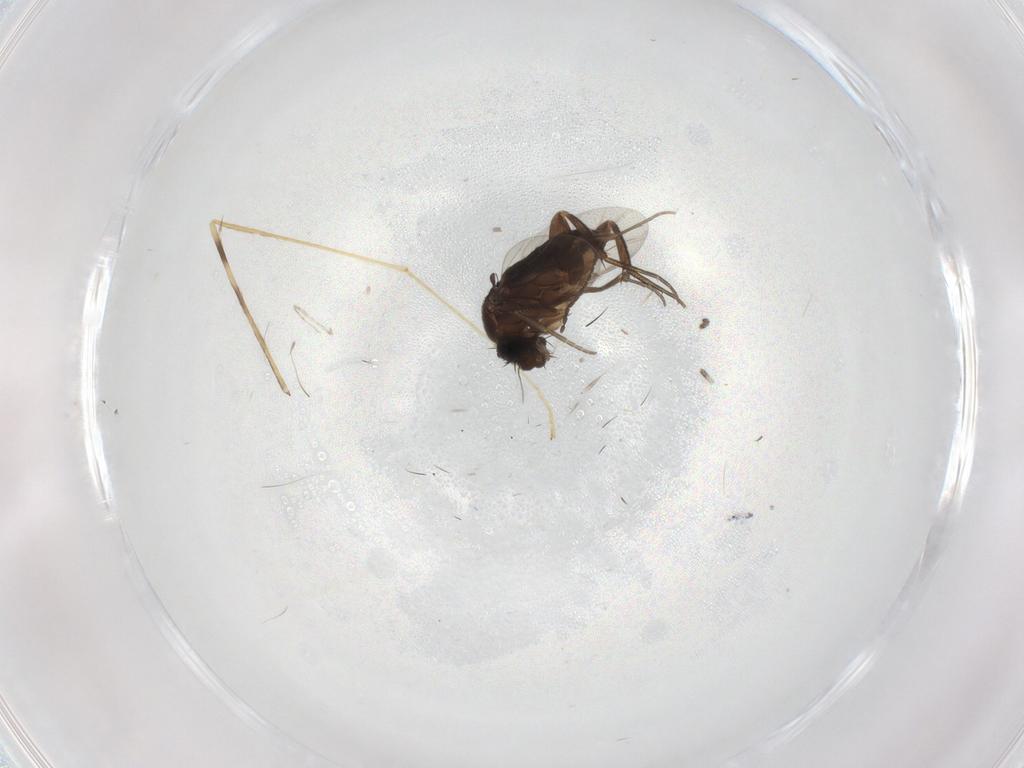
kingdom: Animalia
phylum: Arthropoda
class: Insecta
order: Diptera
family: Phoridae
